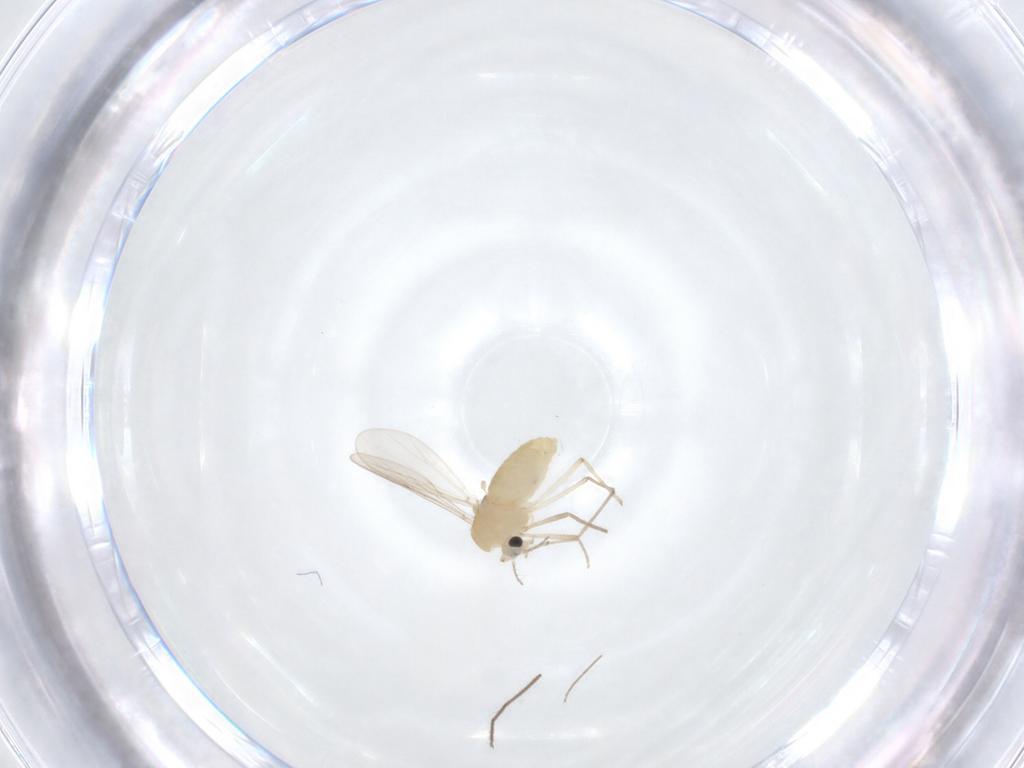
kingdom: Animalia
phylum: Arthropoda
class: Insecta
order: Diptera
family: Chironomidae
